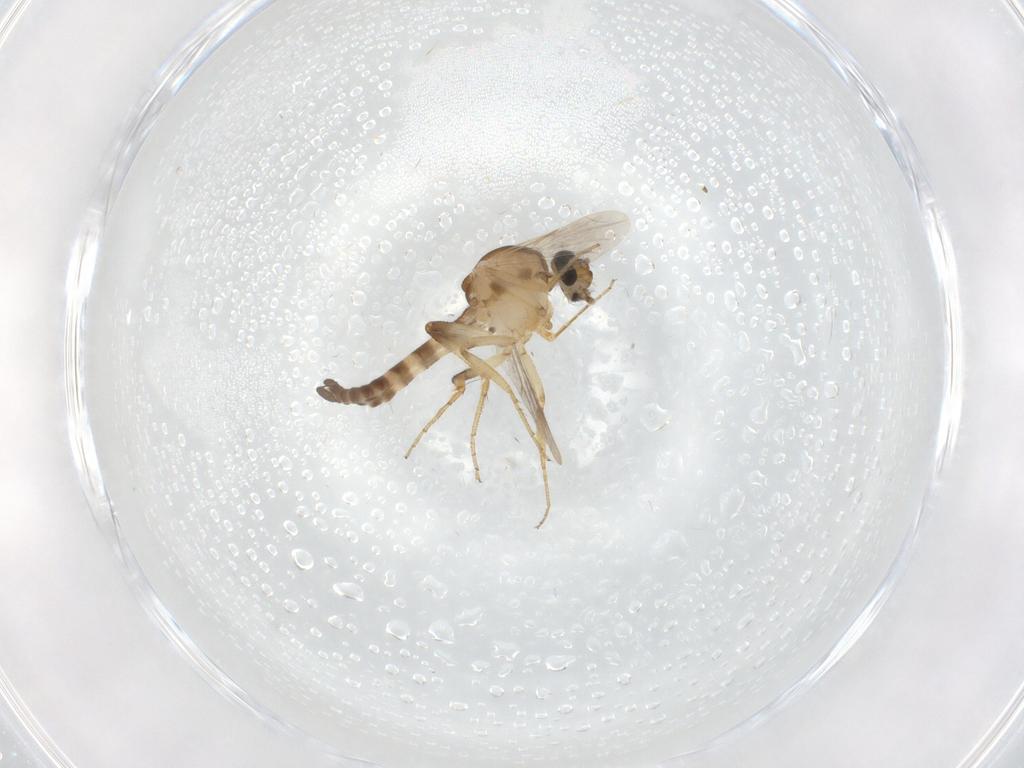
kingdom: Animalia
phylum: Arthropoda
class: Insecta
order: Diptera
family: Ceratopogonidae
